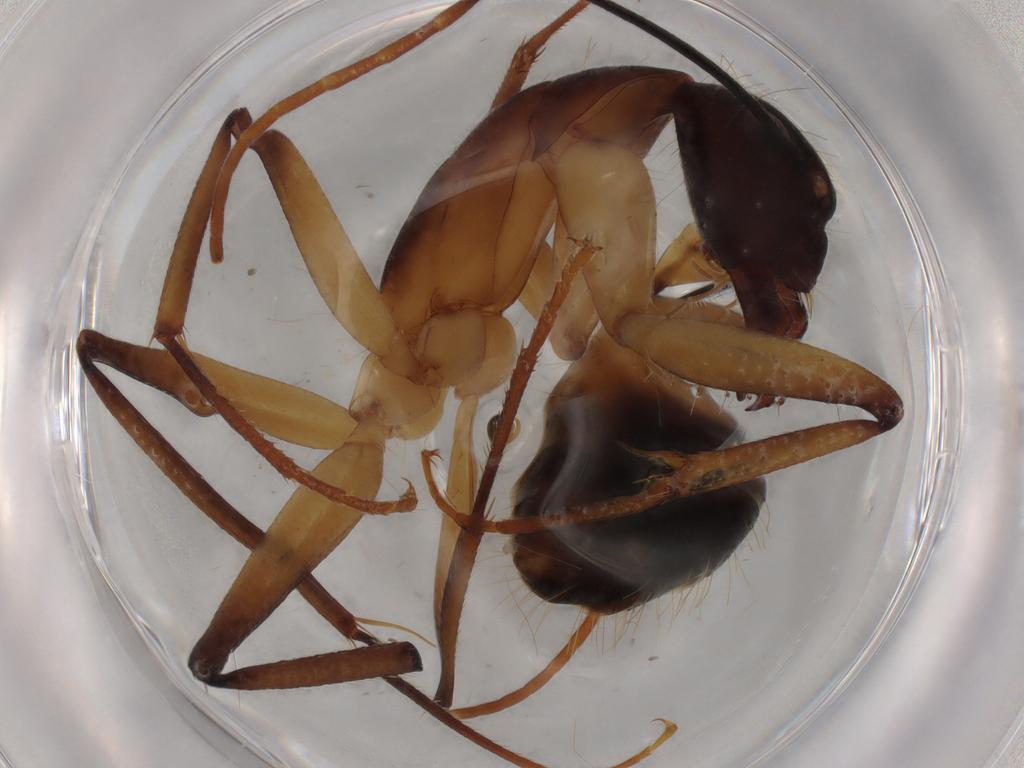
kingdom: Animalia
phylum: Arthropoda
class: Insecta
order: Hymenoptera
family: Formicidae
